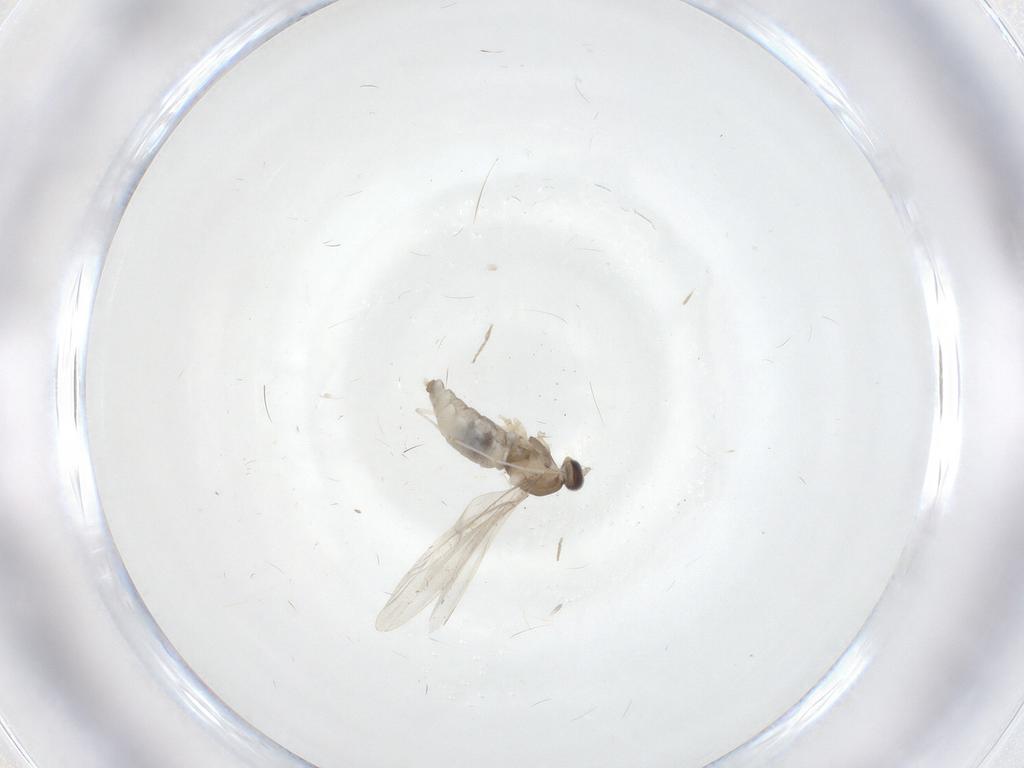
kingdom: Animalia
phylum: Arthropoda
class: Insecta
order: Diptera
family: Cecidomyiidae
